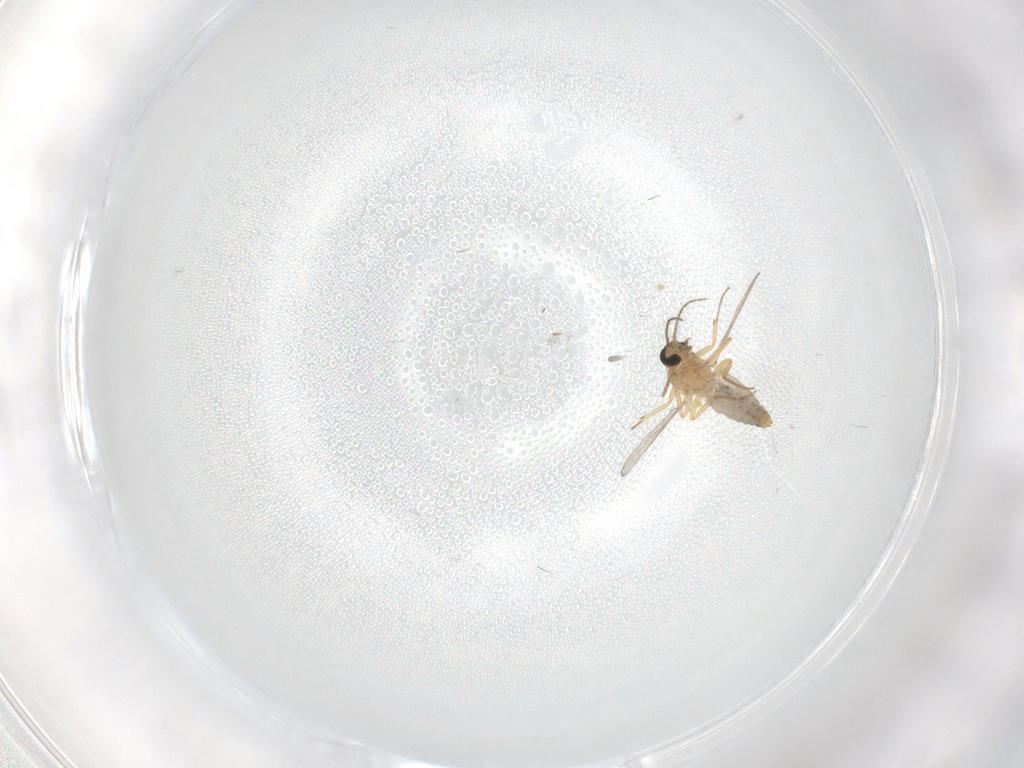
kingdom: Animalia
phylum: Arthropoda
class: Insecta
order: Diptera
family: Ceratopogonidae
